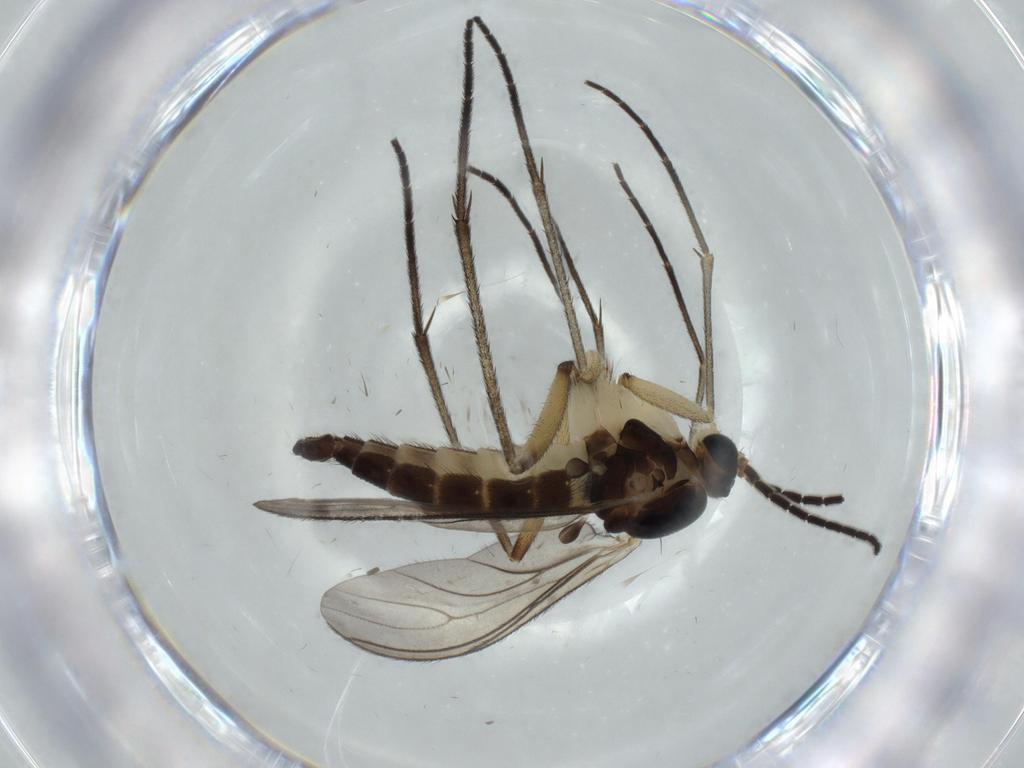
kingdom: Animalia
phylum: Arthropoda
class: Insecta
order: Diptera
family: Sciaridae
